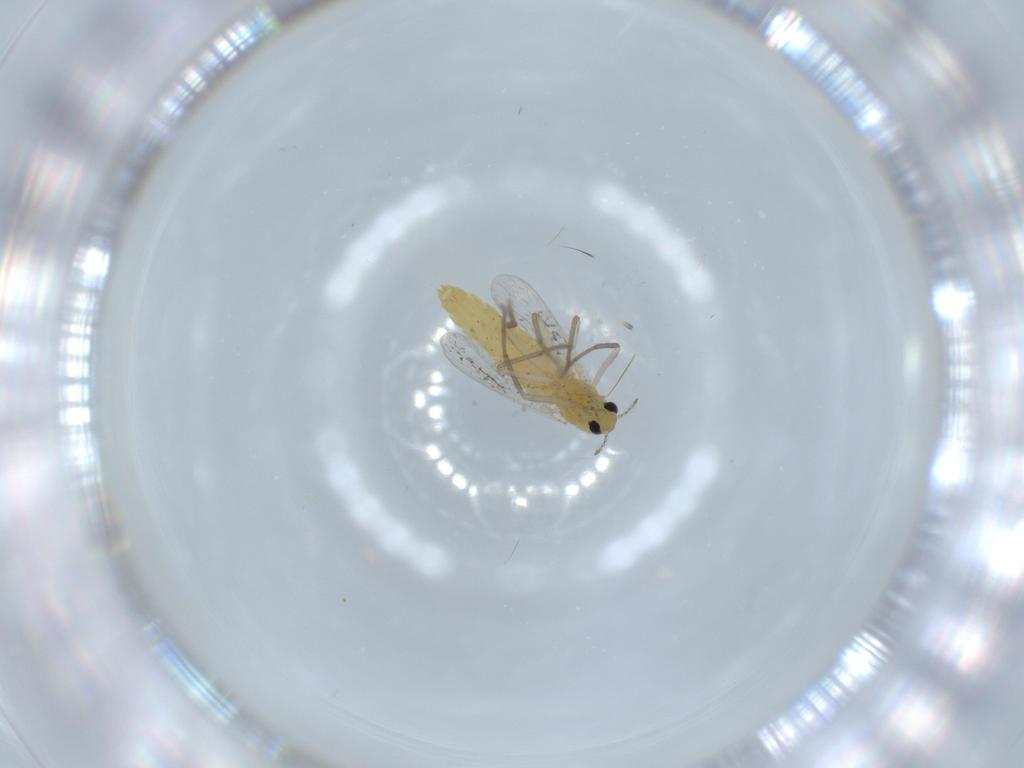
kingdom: Animalia
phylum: Arthropoda
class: Insecta
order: Diptera
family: Chironomidae
